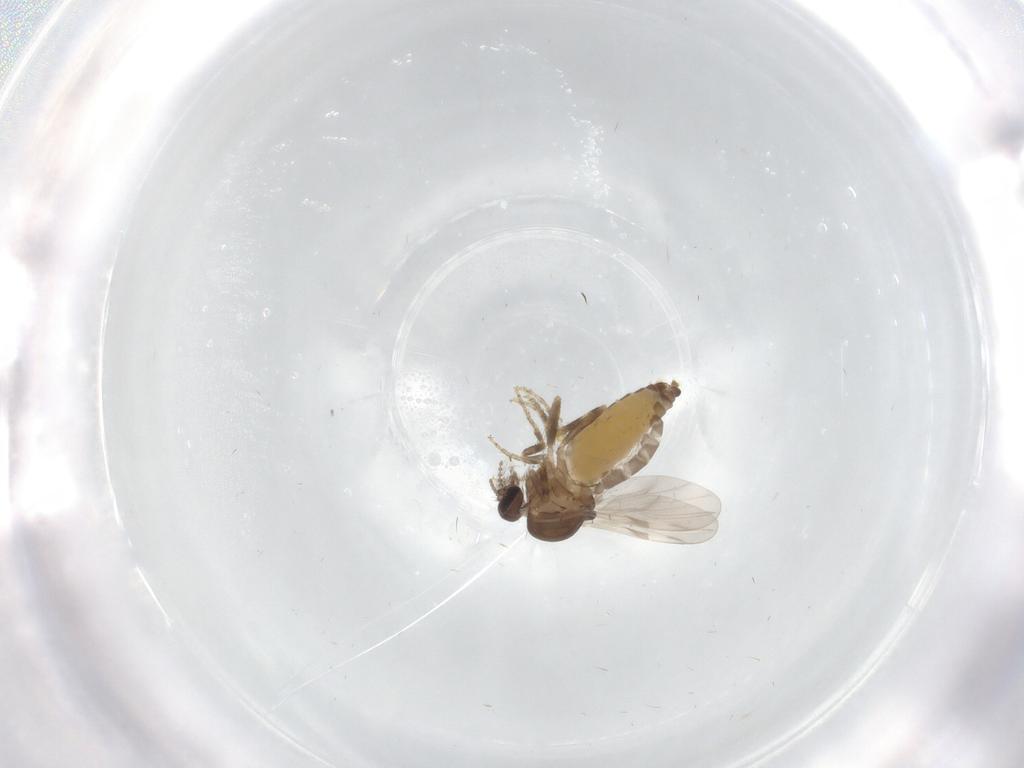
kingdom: Animalia
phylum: Arthropoda
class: Insecta
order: Diptera
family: Ceratopogonidae
